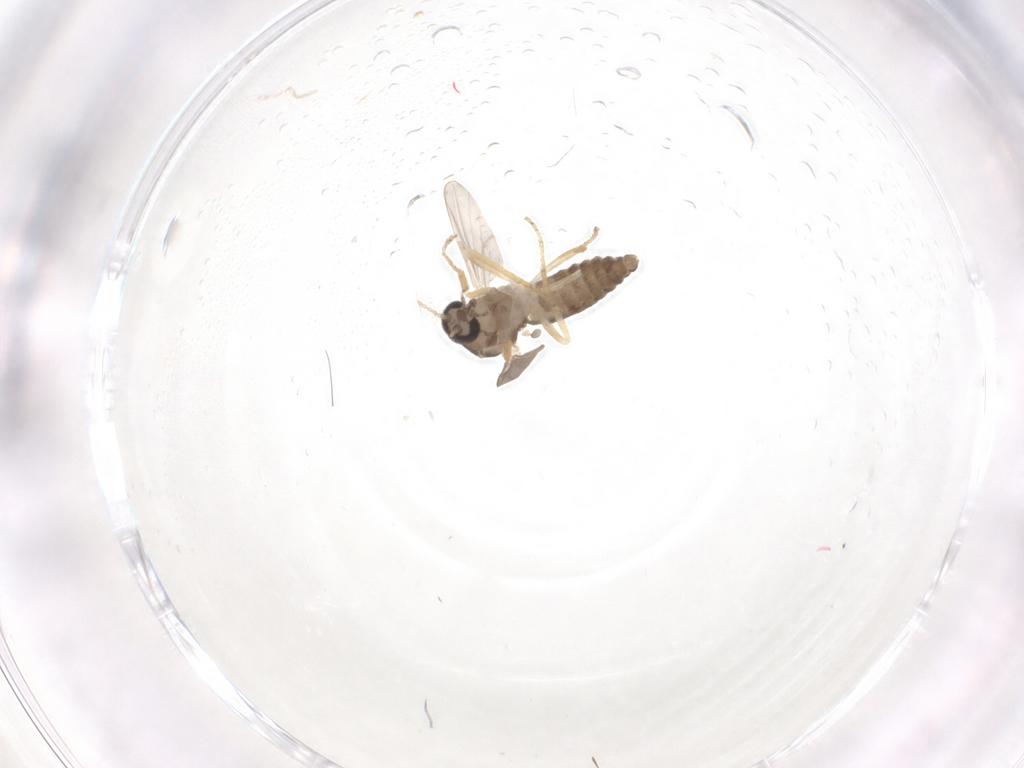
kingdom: Animalia
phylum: Arthropoda
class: Insecta
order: Diptera
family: Ceratopogonidae
